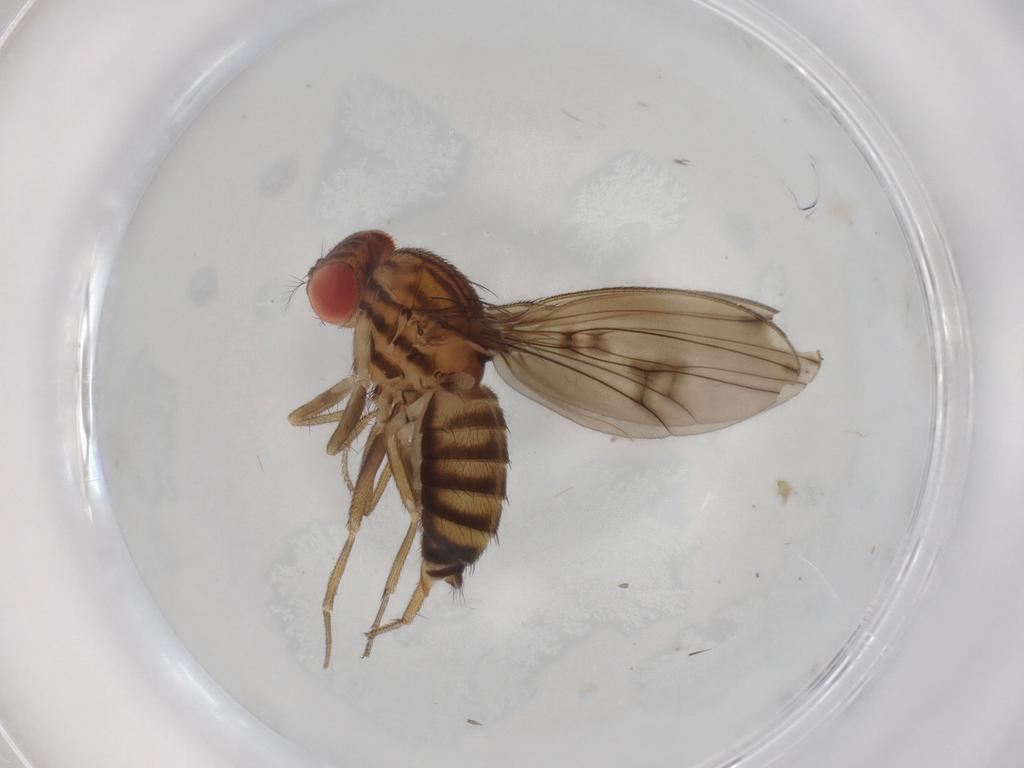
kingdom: Animalia
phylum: Arthropoda
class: Insecta
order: Diptera
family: Drosophilidae
